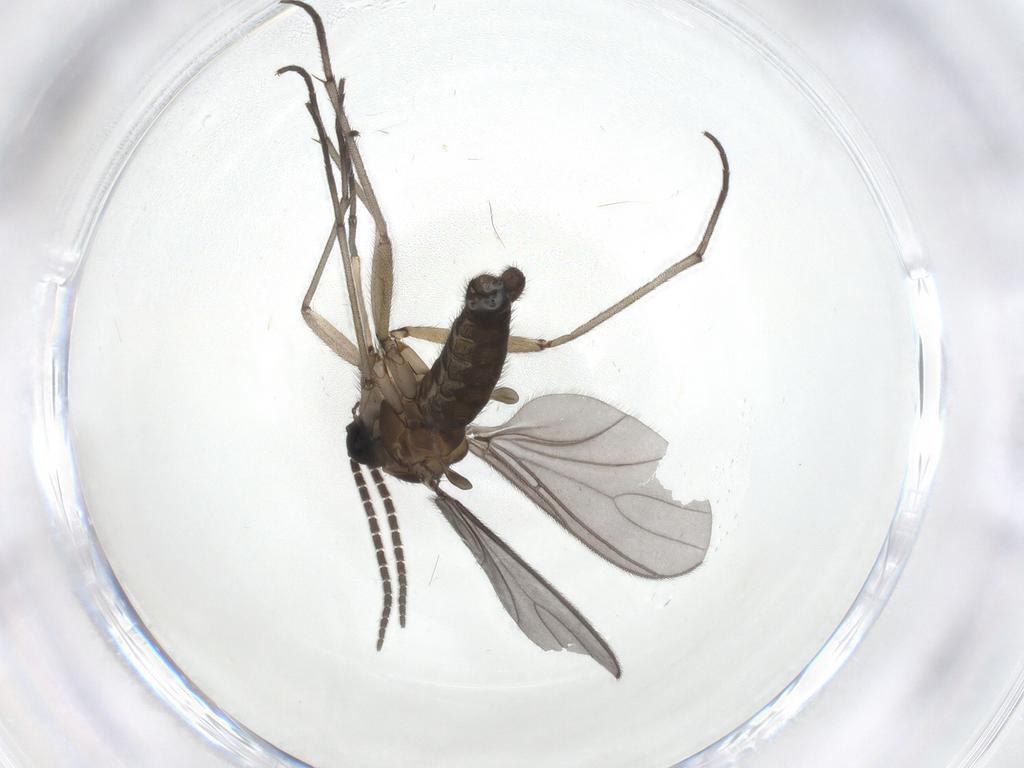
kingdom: Animalia
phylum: Arthropoda
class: Insecta
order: Diptera
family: Sciaridae
